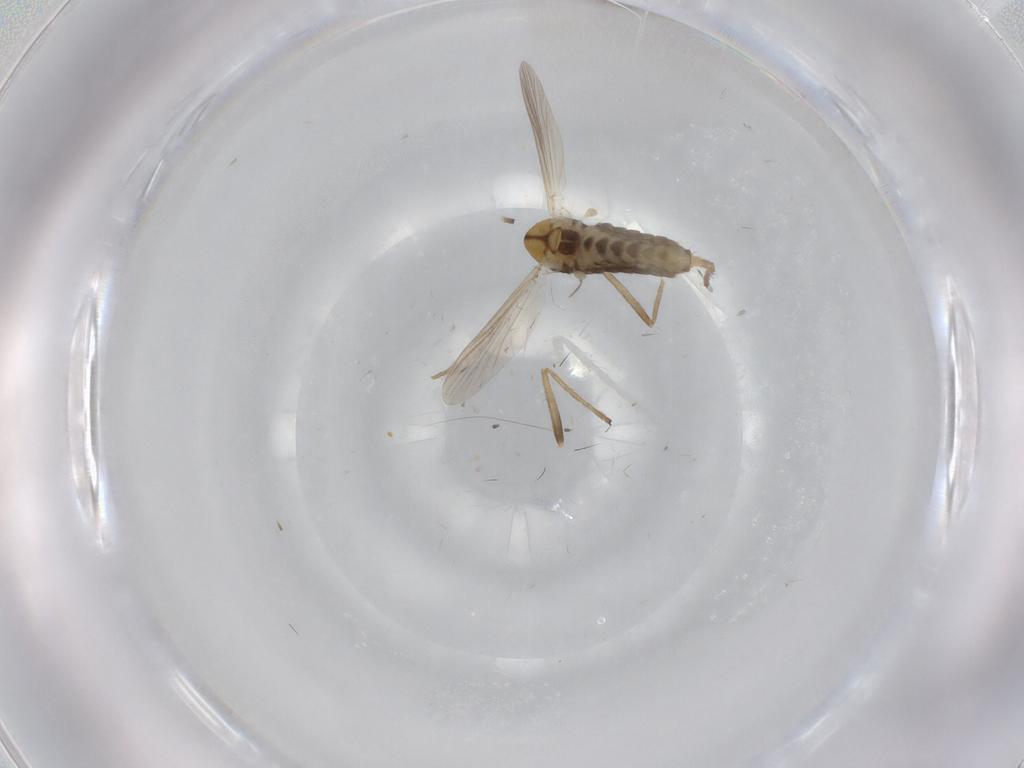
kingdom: Animalia
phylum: Arthropoda
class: Insecta
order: Diptera
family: Chironomidae
